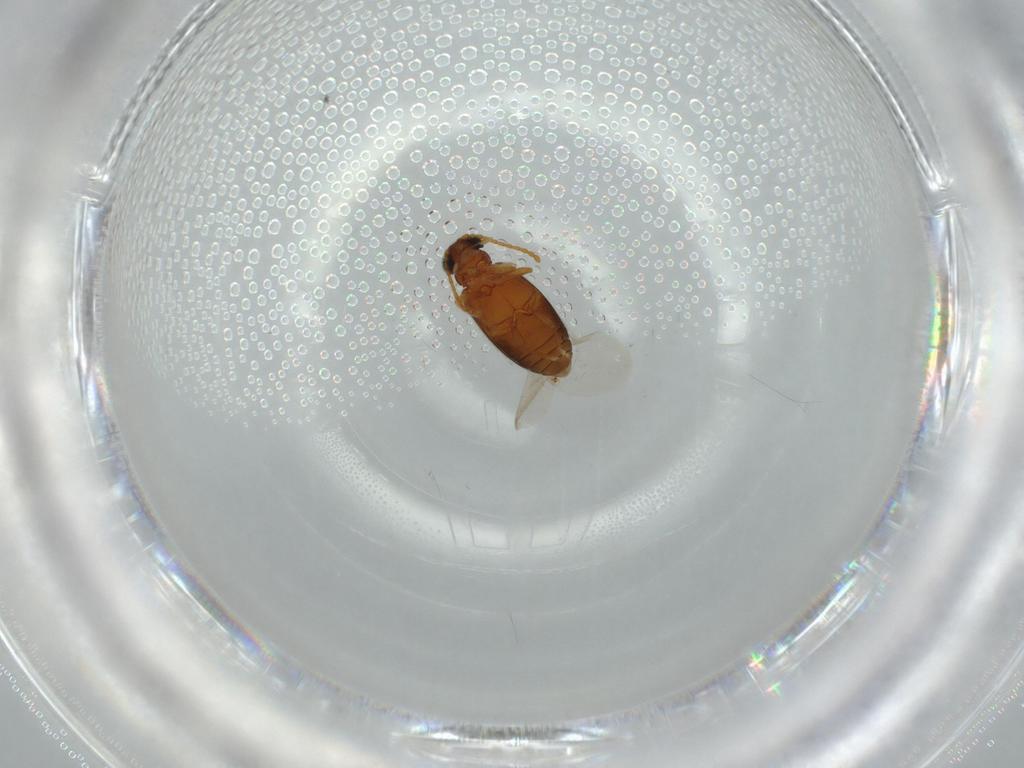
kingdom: Animalia
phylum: Arthropoda
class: Insecta
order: Coleoptera
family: Aderidae
